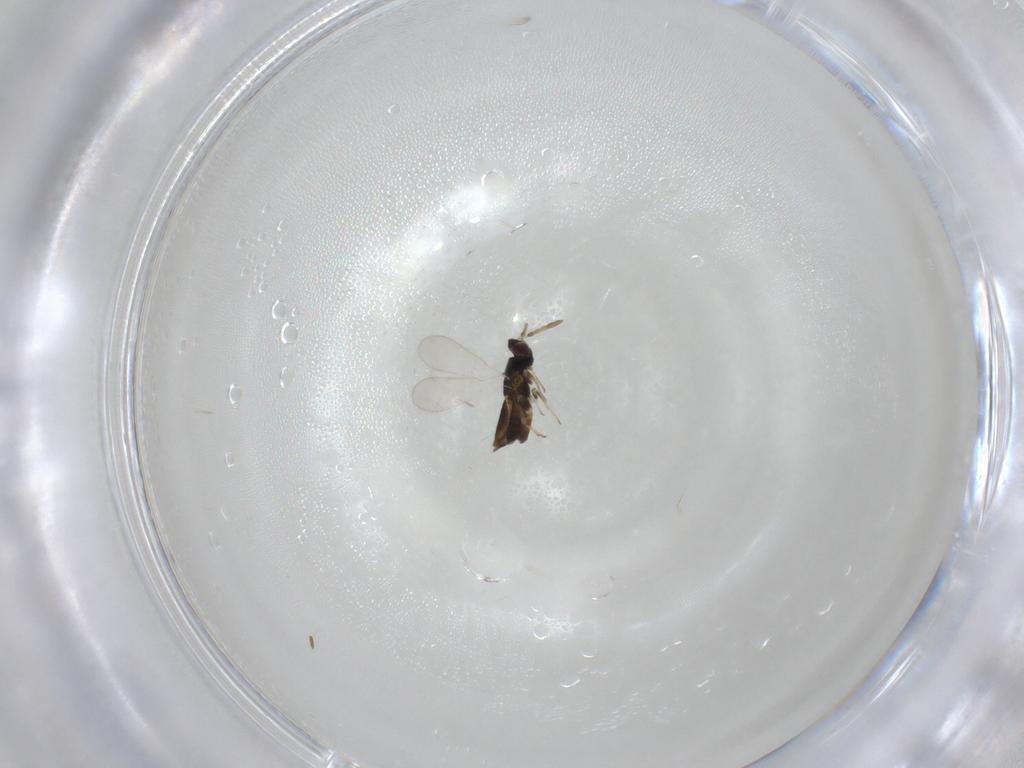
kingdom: Animalia
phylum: Arthropoda
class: Insecta
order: Hymenoptera
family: Aphelinidae
